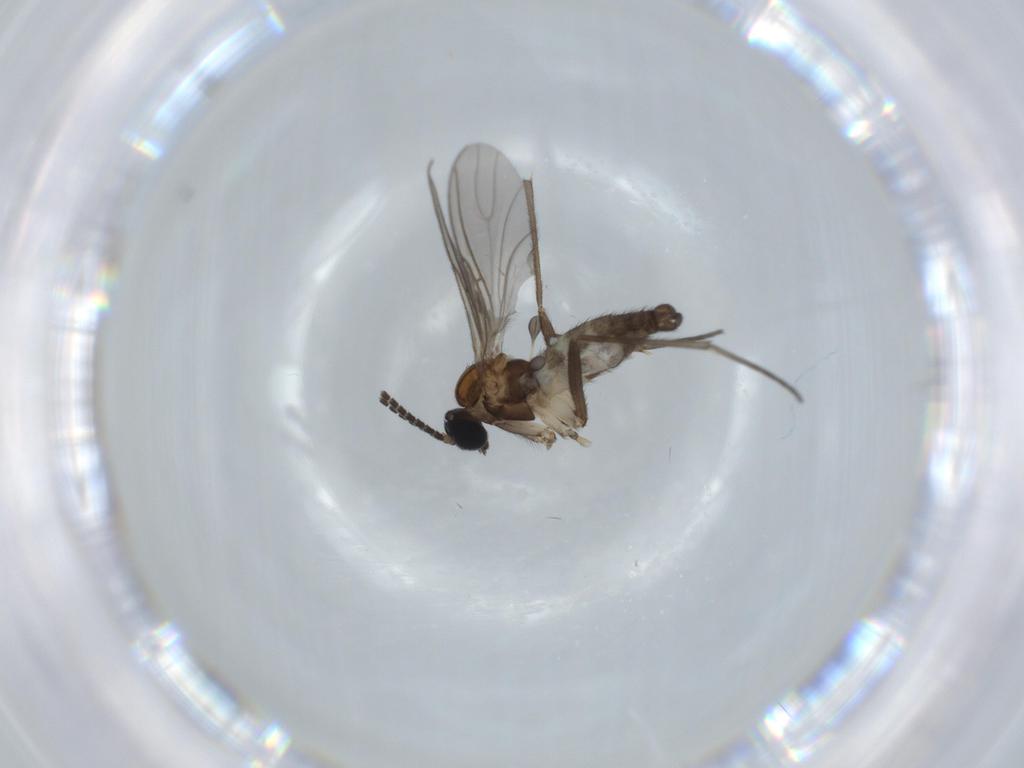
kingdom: Animalia
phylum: Arthropoda
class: Insecta
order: Diptera
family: Sciaridae
